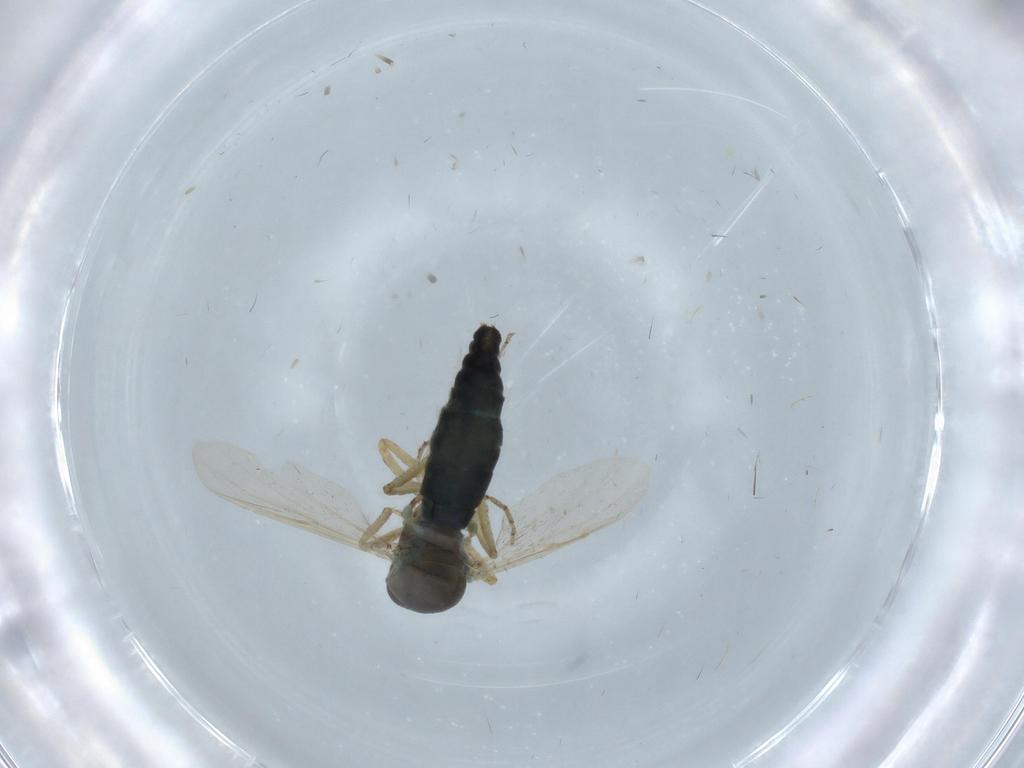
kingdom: Animalia
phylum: Arthropoda
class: Insecta
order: Diptera
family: Ceratopogonidae
